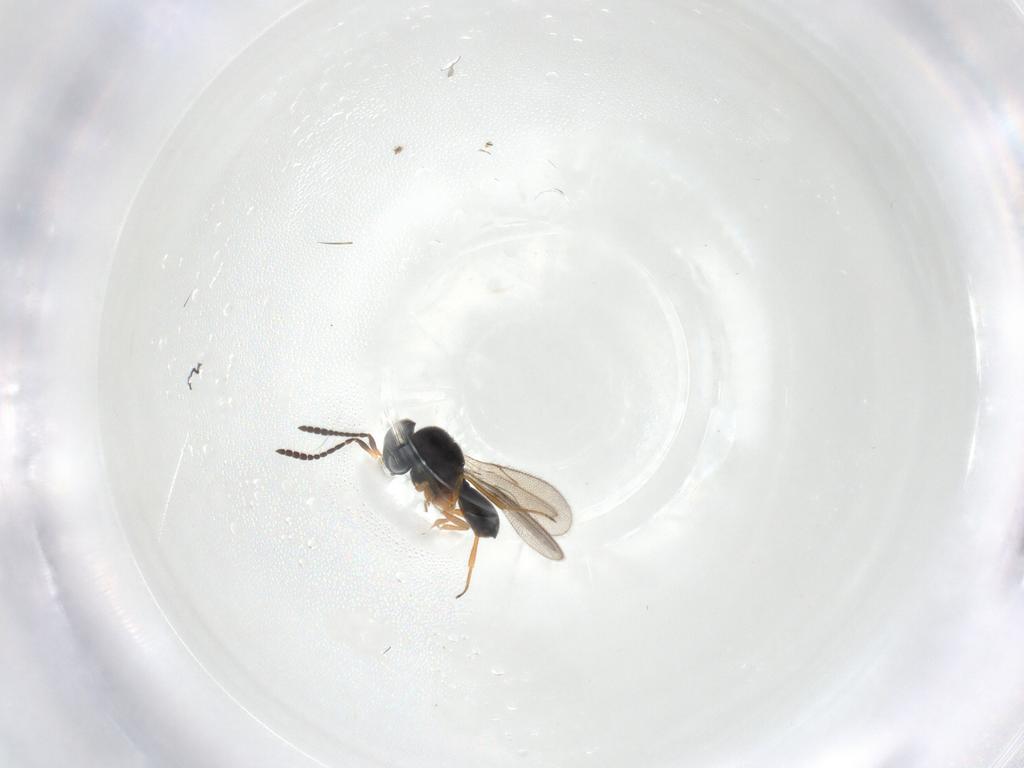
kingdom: Animalia
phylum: Arthropoda
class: Insecta
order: Hymenoptera
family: Scelionidae
